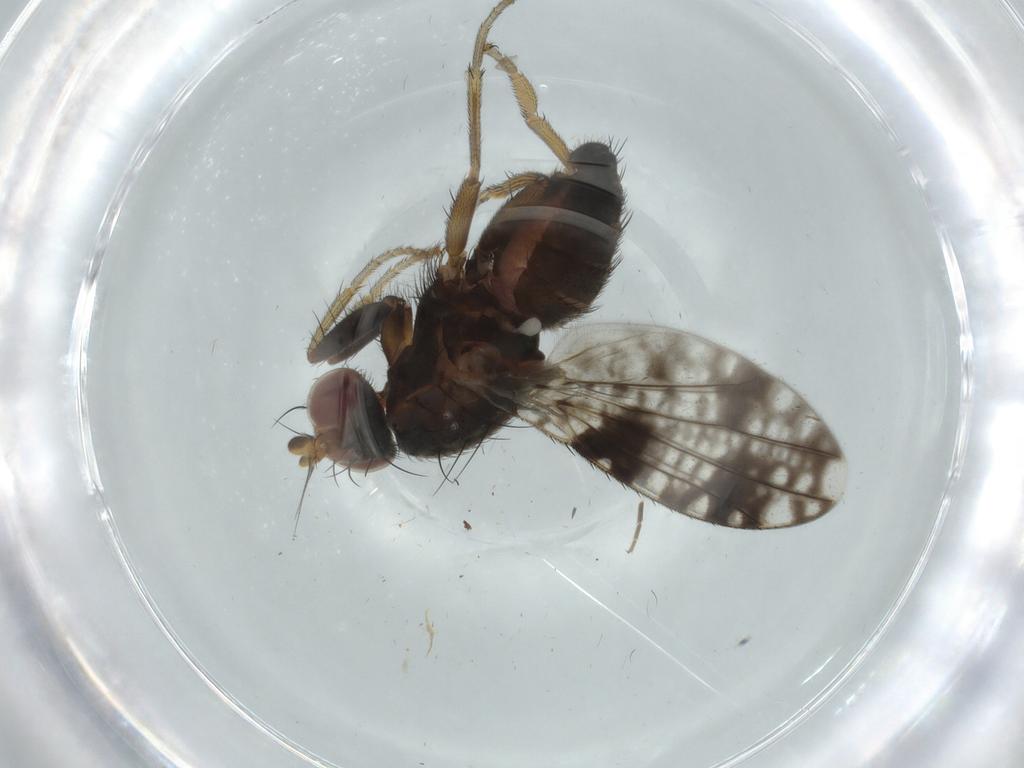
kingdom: Animalia
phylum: Arthropoda
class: Insecta
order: Diptera
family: Tephritidae
